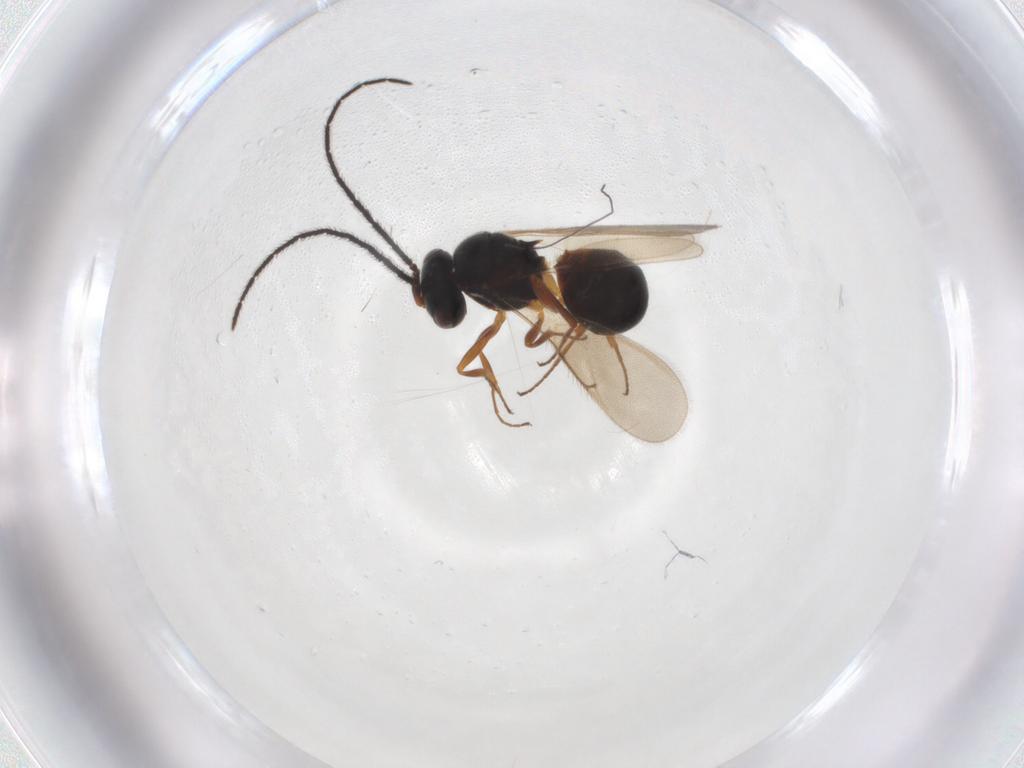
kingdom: Animalia
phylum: Arthropoda
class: Insecta
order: Hymenoptera
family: Scelionidae
